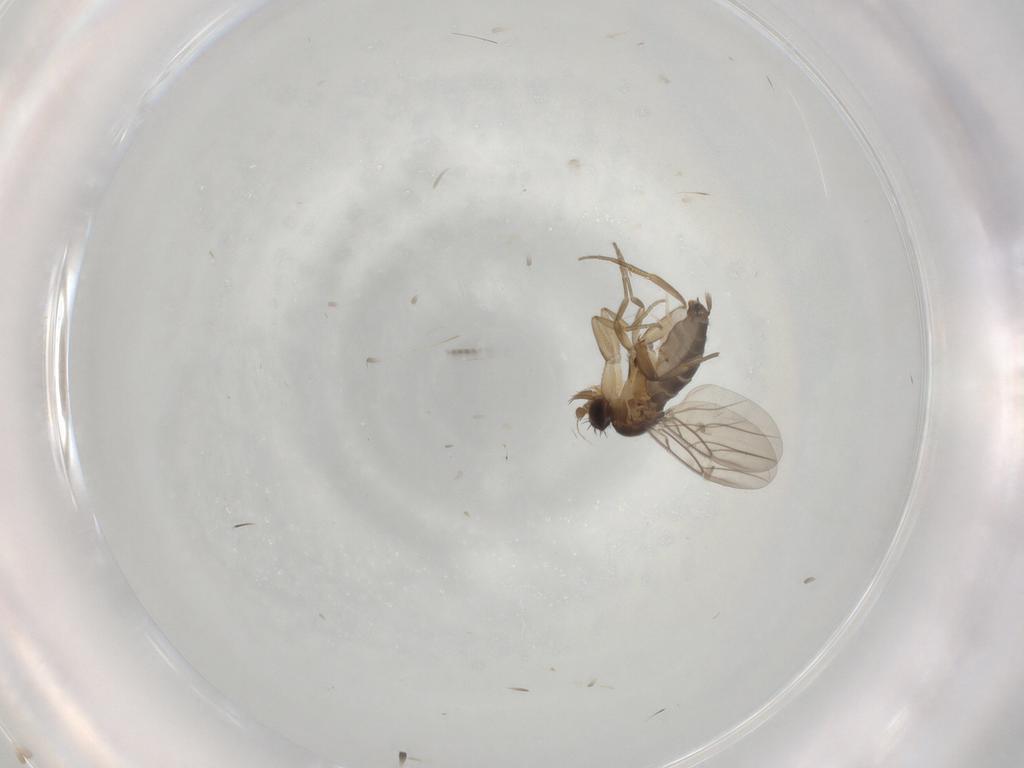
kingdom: Animalia
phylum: Arthropoda
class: Insecta
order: Diptera
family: Phoridae
